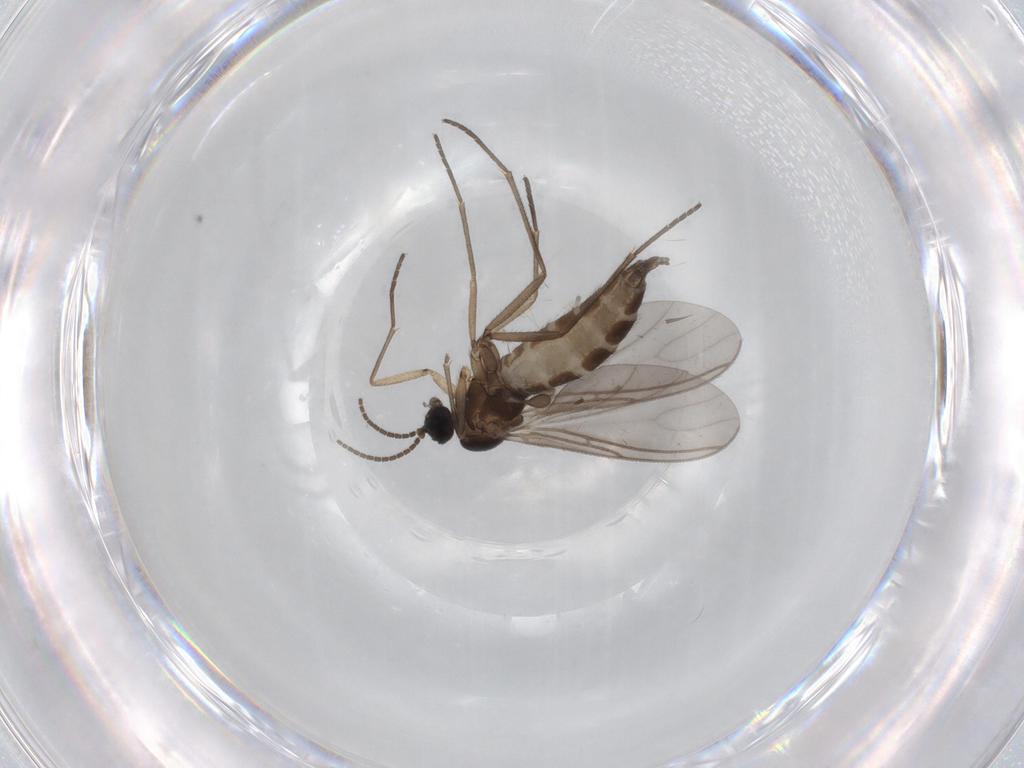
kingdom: Animalia
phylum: Arthropoda
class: Insecta
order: Diptera
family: Sciaridae
